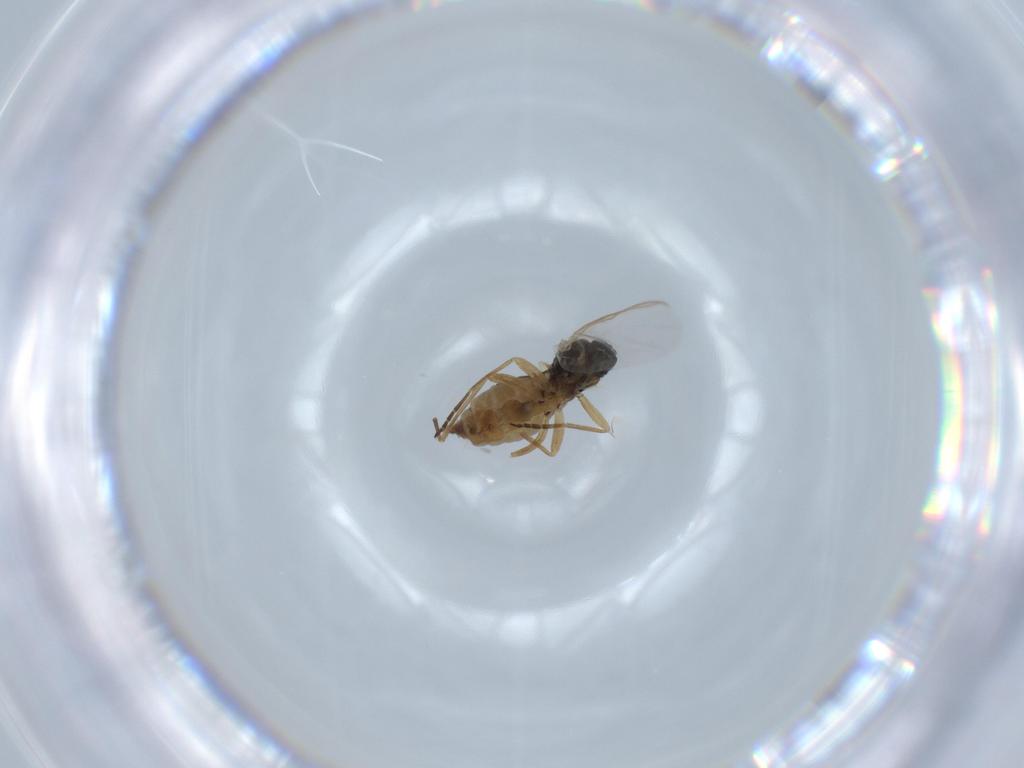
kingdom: Animalia
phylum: Arthropoda
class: Insecta
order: Diptera
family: Sciaridae
